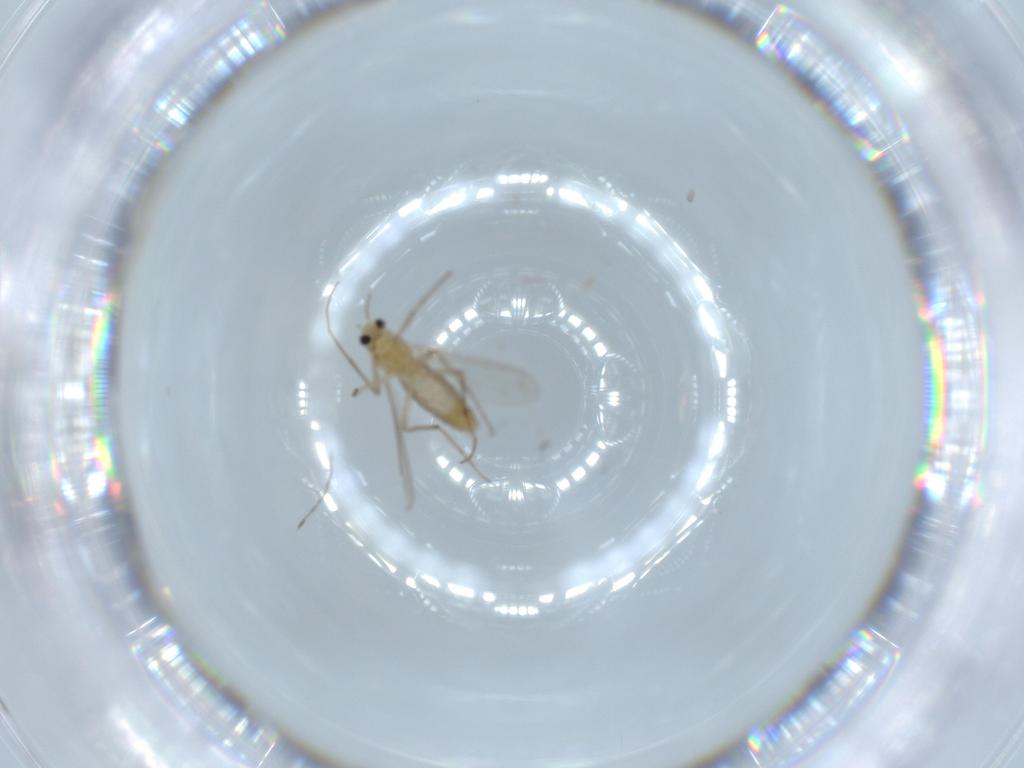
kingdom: Animalia
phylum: Arthropoda
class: Insecta
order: Diptera
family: Chironomidae
